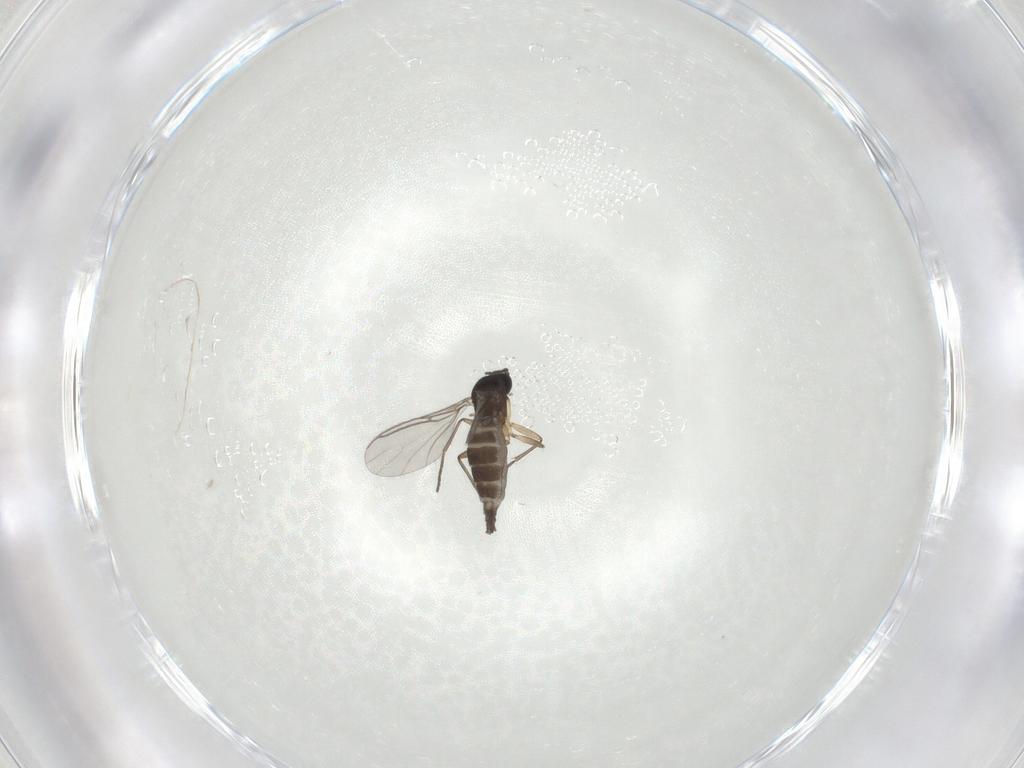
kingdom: Animalia
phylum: Arthropoda
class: Insecta
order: Diptera
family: Sciaridae
